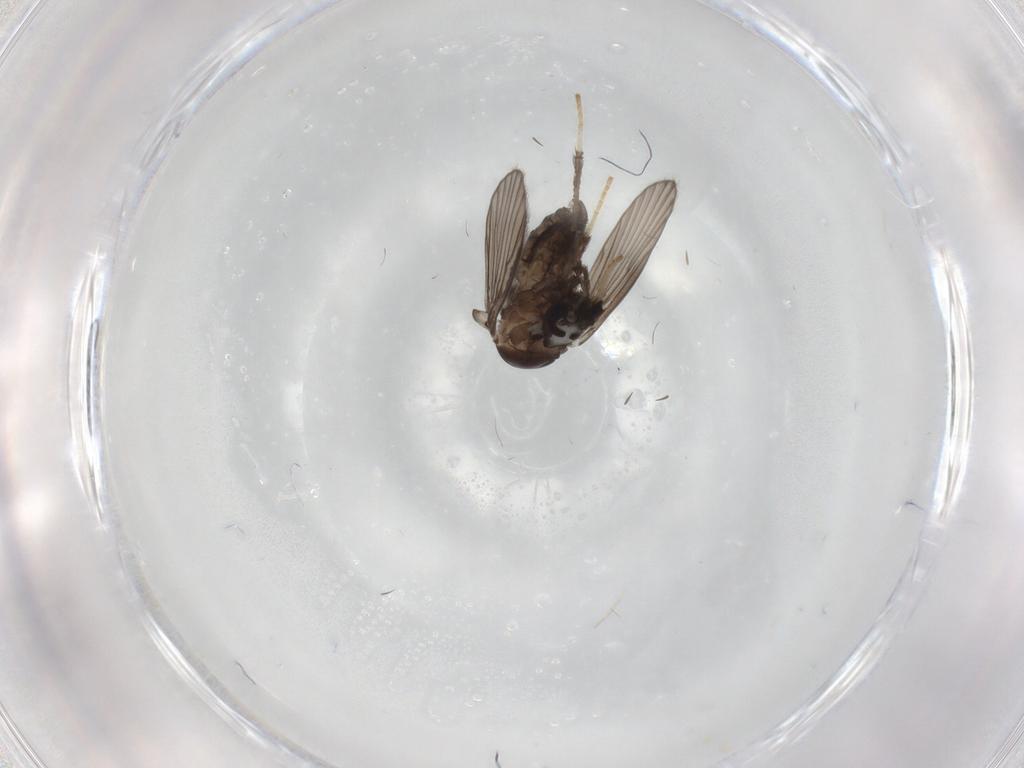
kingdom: Animalia
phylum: Arthropoda
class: Insecta
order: Diptera
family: Psychodidae
